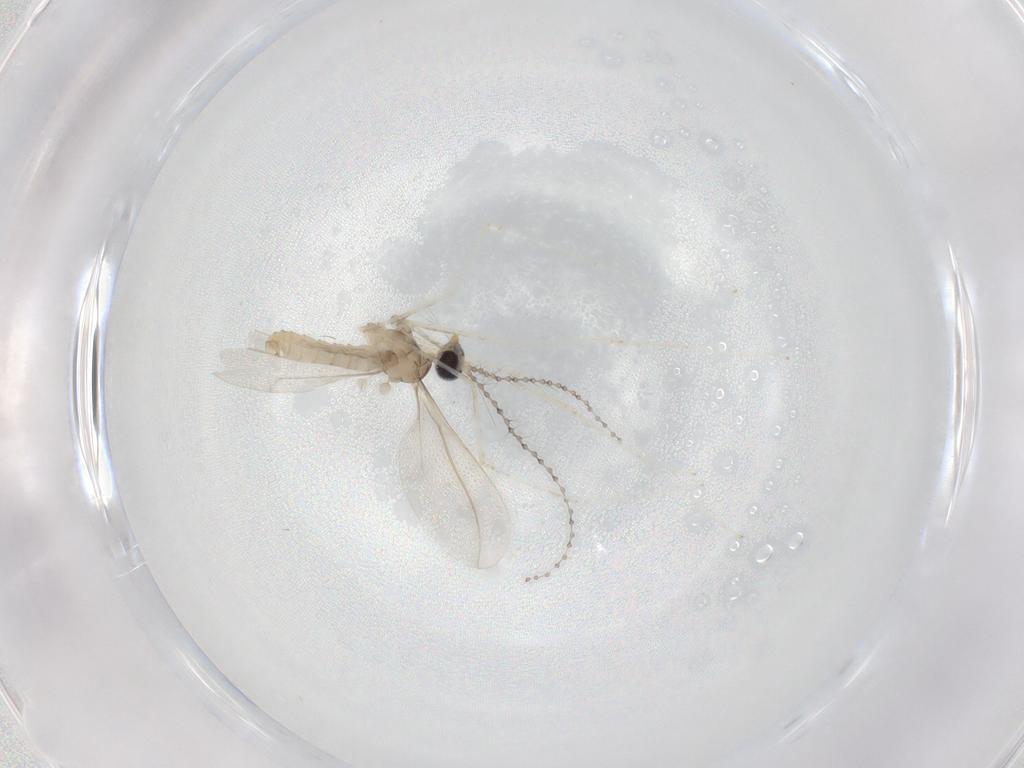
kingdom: Animalia
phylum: Arthropoda
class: Insecta
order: Diptera
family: Cecidomyiidae
